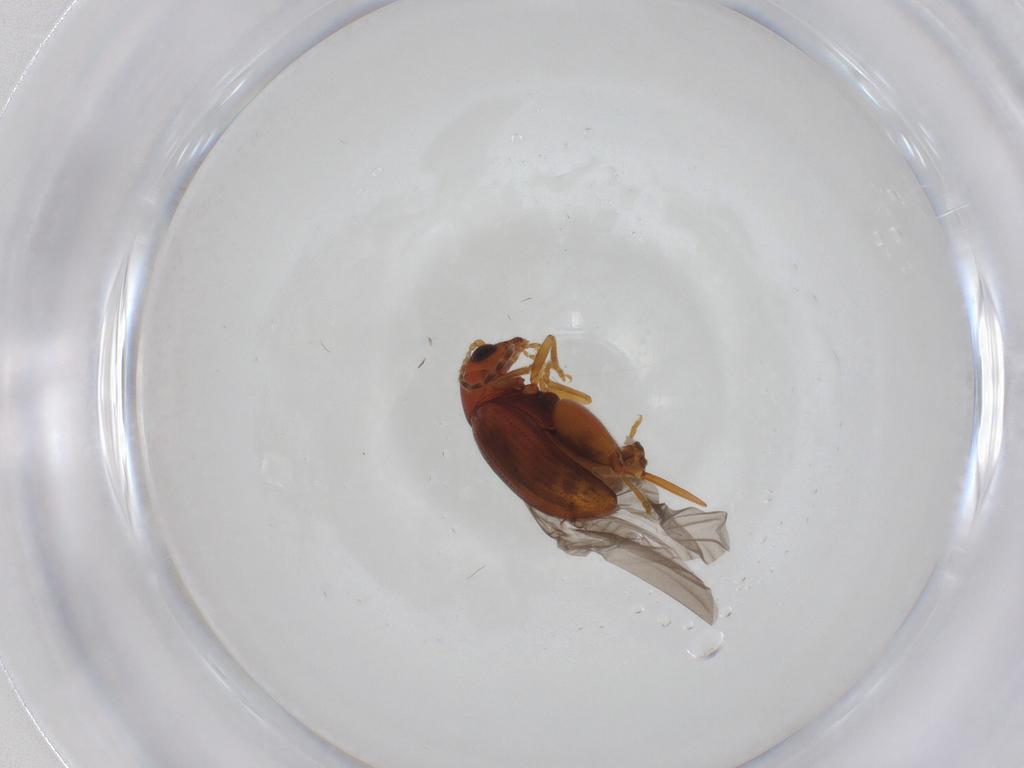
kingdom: Animalia
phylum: Arthropoda
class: Insecta
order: Coleoptera
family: Chrysomelidae
